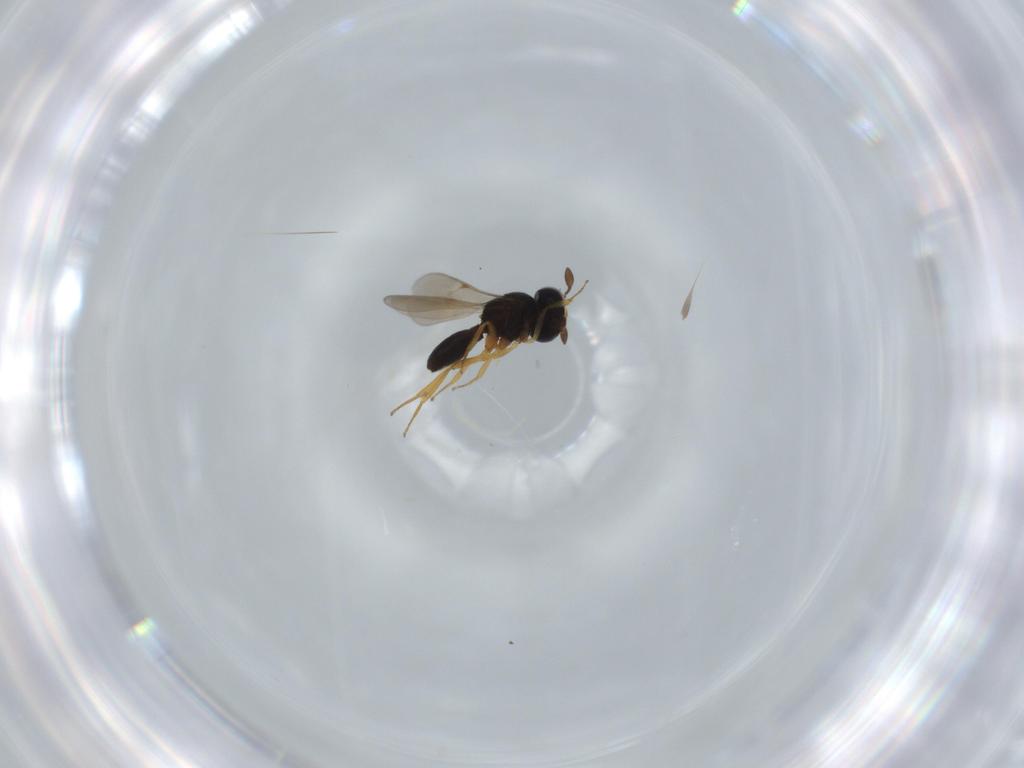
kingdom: Animalia
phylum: Arthropoda
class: Insecta
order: Hymenoptera
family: Scelionidae
